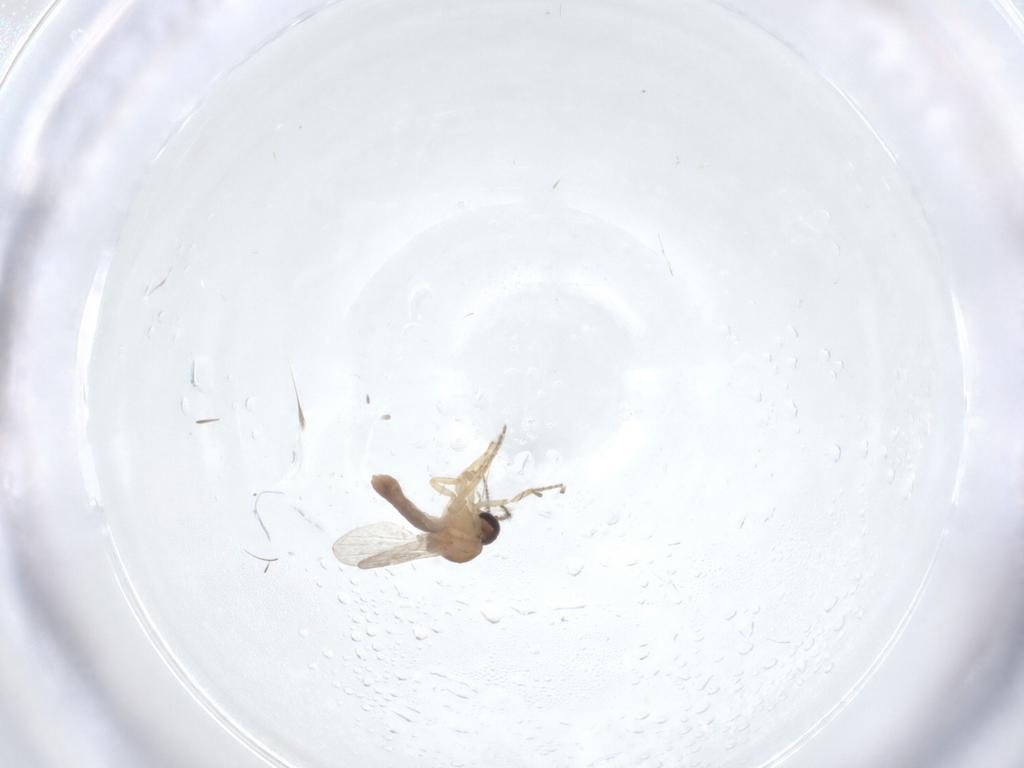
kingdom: Animalia
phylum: Arthropoda
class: Insecta
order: Diptera
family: Ceratopogonidae
